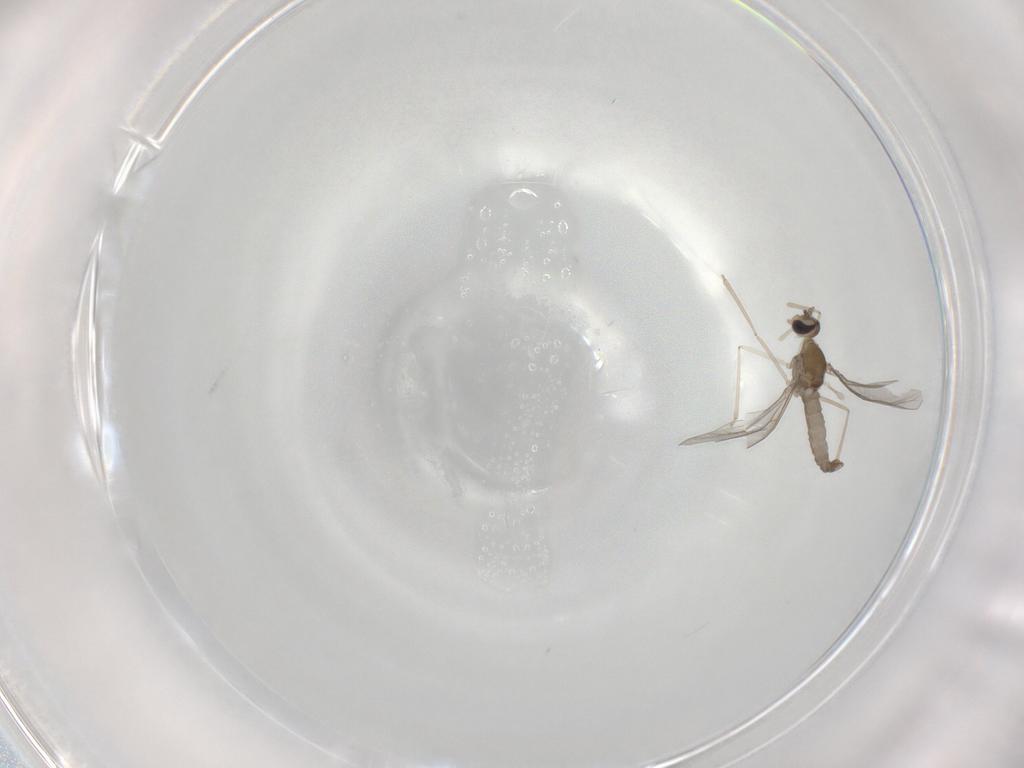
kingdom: Animalia
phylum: Arthropoda
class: Insecta
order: Diptera
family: Cecidomyiidae
